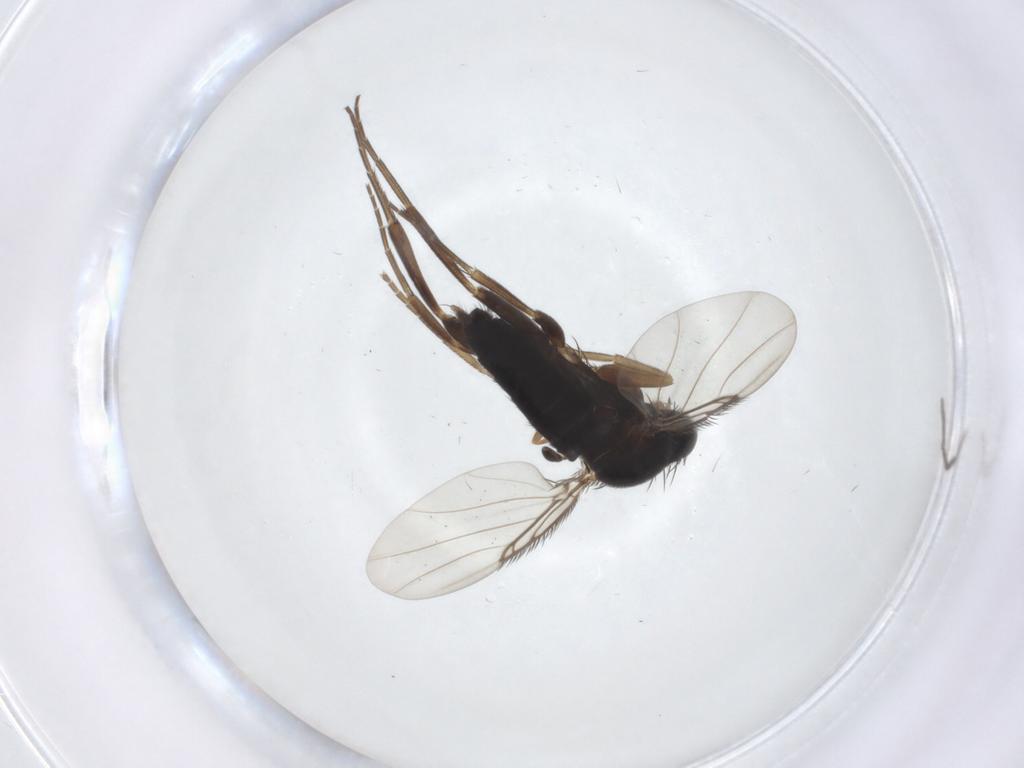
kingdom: Animalia
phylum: Arthropoda
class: Insecta
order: Diptera
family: Phoridae
